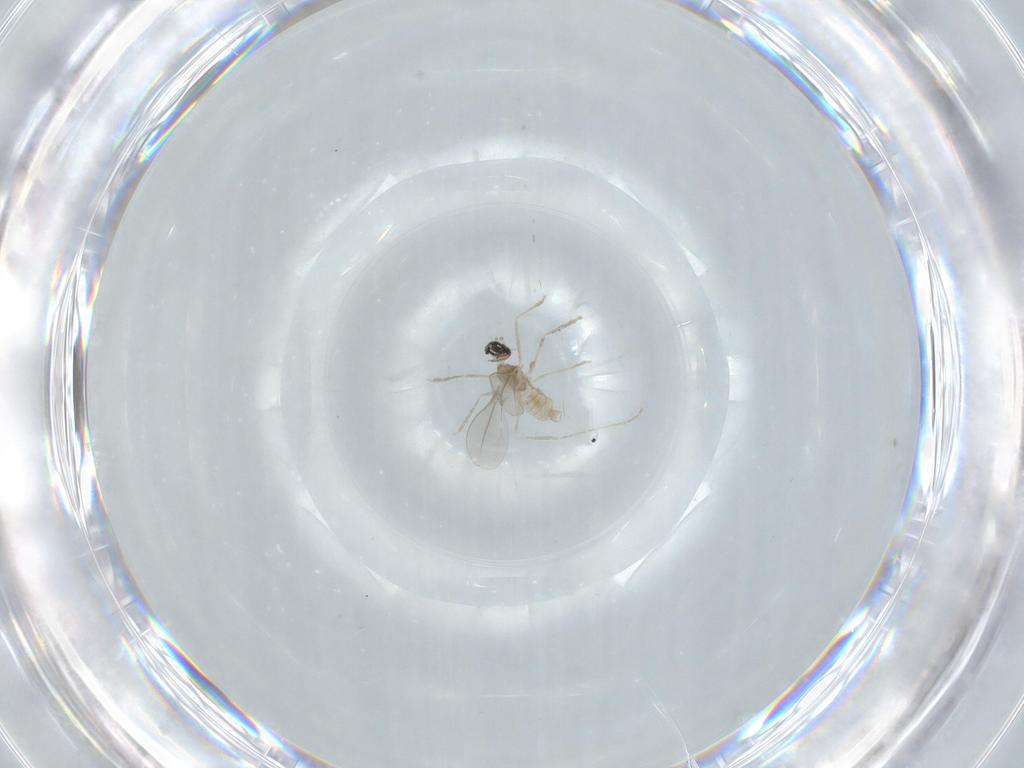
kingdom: Animalia
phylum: Arthropoda
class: Insecta
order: Diptera
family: Cecidomyiidae
